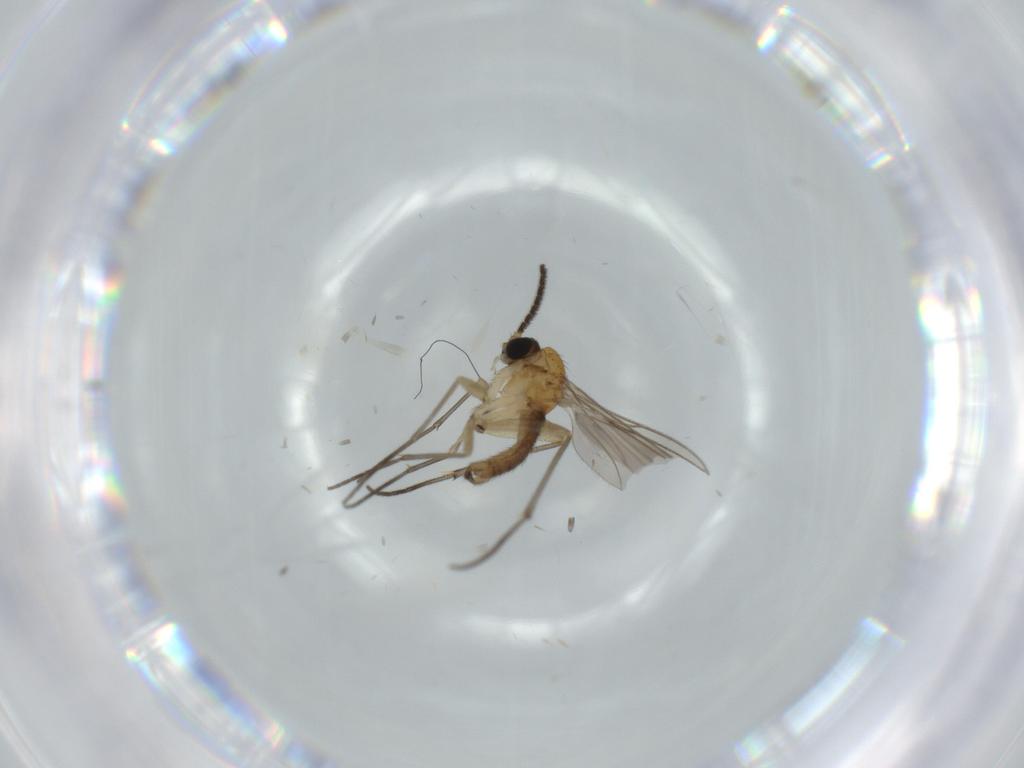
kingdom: Animalia
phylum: Arthropoda
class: Insecta
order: Diptera
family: Sciaridae
